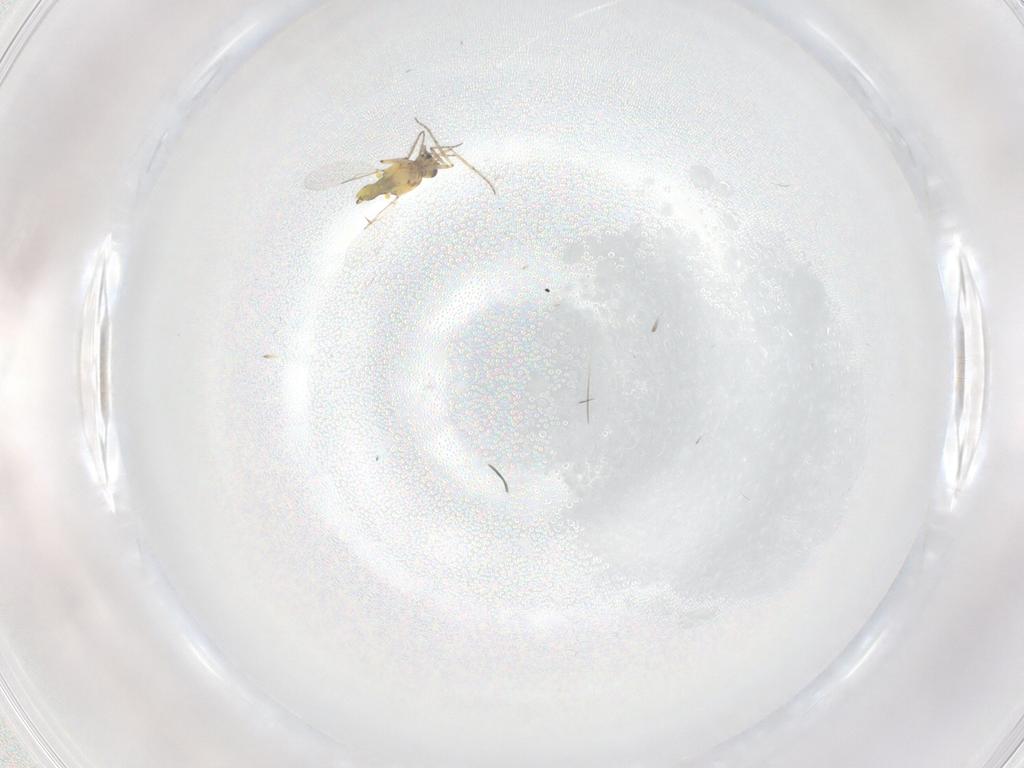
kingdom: Animalia
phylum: Arthropoda
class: Insecta
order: Diptera
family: Ceratopogonidae
